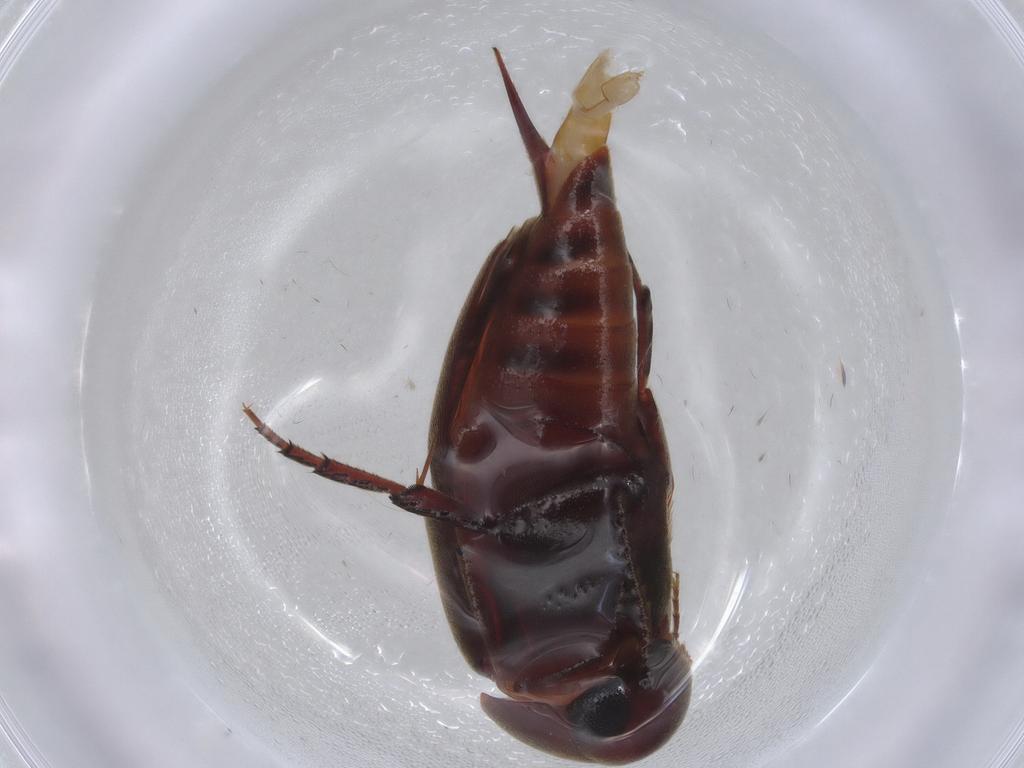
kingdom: Animalia
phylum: Arthropoda
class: Insecta
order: Coleoptera
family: Mordellidae
